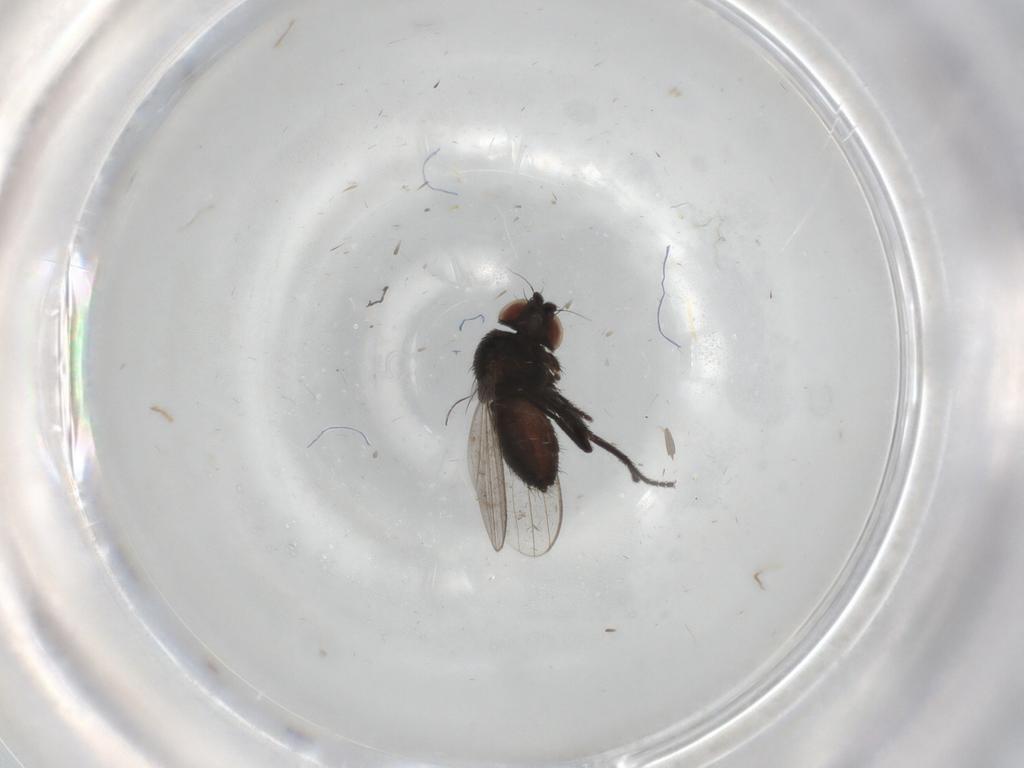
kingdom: Animalia
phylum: Arthropoda
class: Insecta
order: Diptera
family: Milichiidae
